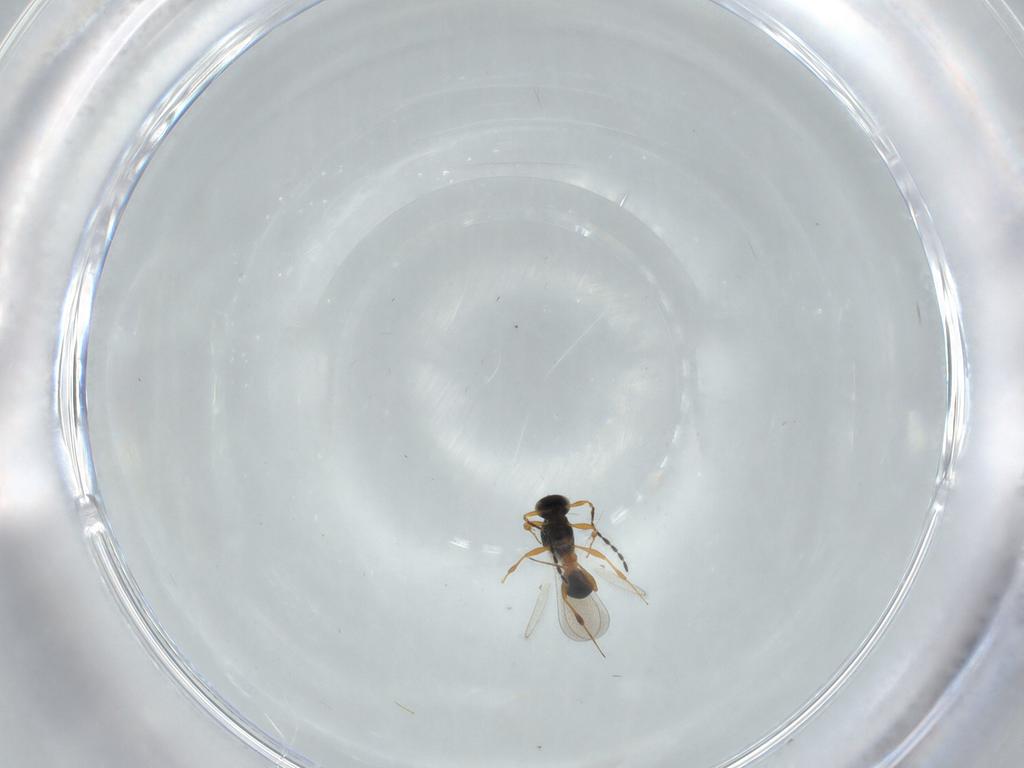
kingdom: Animalia
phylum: Arthropoda
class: Insecta
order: Hymenoptera
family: Platygastridae
